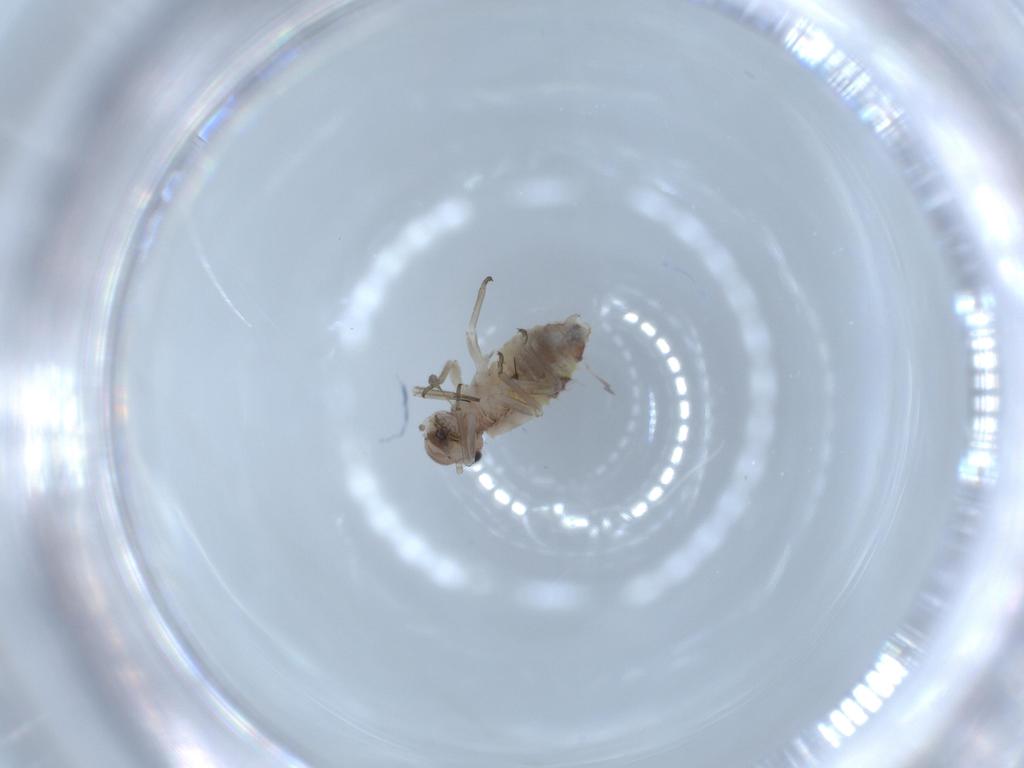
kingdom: Animalia
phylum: Arthropoda
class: Insecta
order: Psocodea
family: Psocidae
